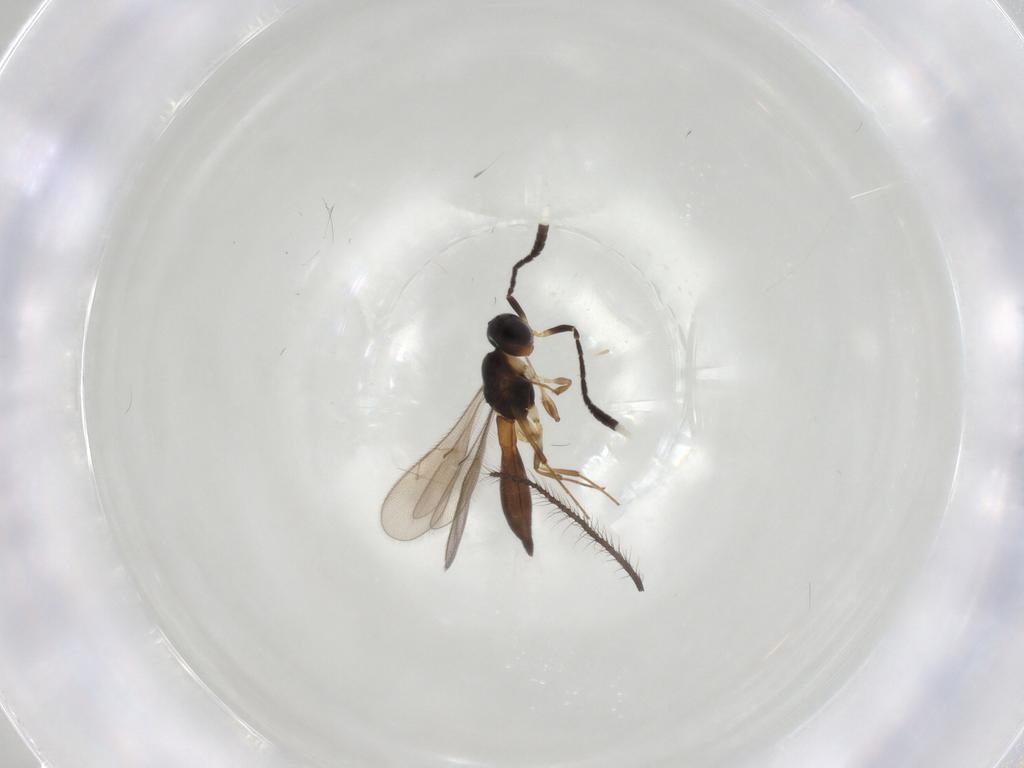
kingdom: Animalia
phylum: Arthropoda
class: Insecta
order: Hymenoptera
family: Scelionidae
